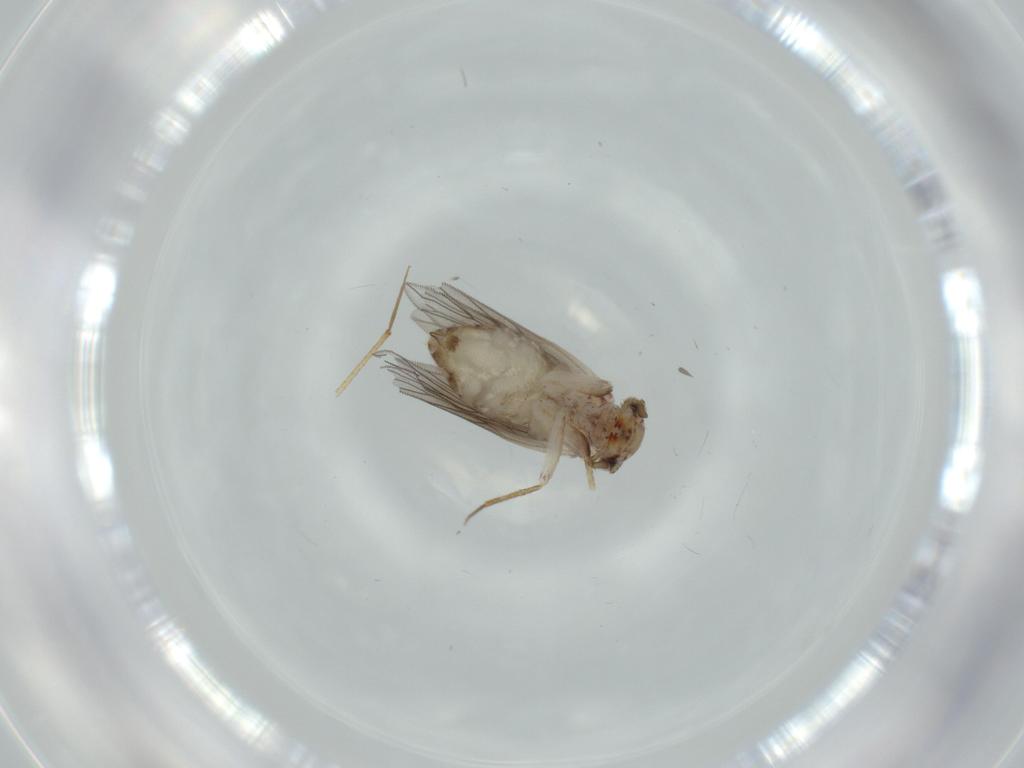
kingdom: Animalia
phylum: Arthropoda
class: Insecta
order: Psocodea
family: Lepidopsocidae
